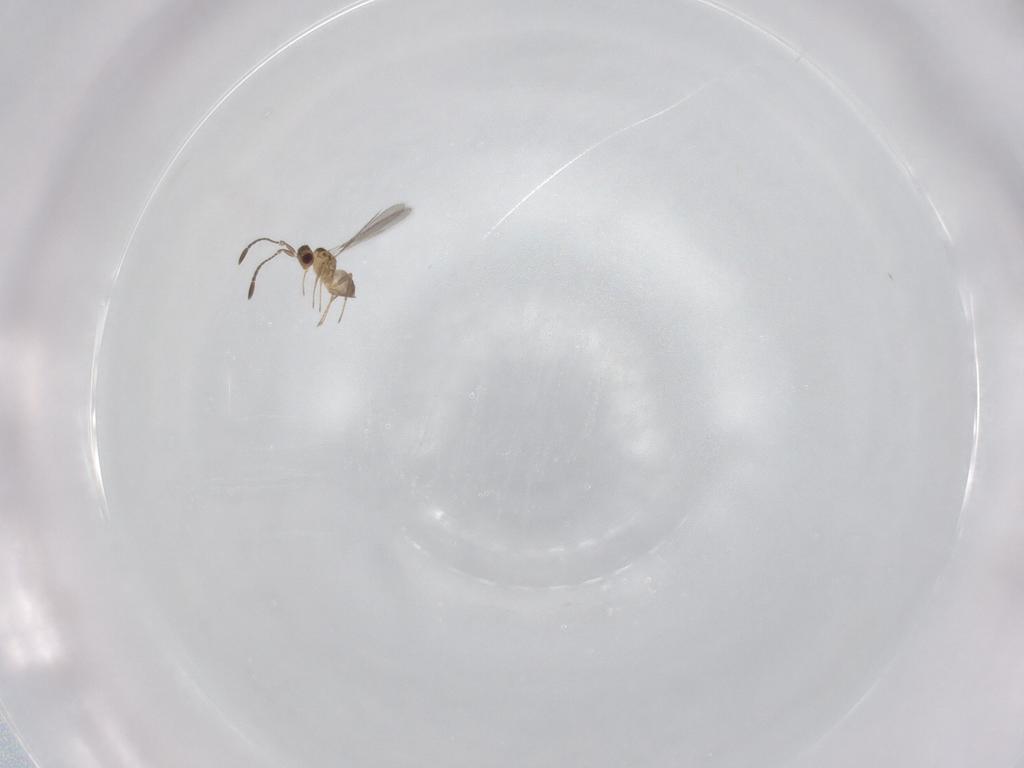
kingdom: Animalia
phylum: Arthropoda
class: Insecta
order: Hymenoptera
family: Mymaridae
